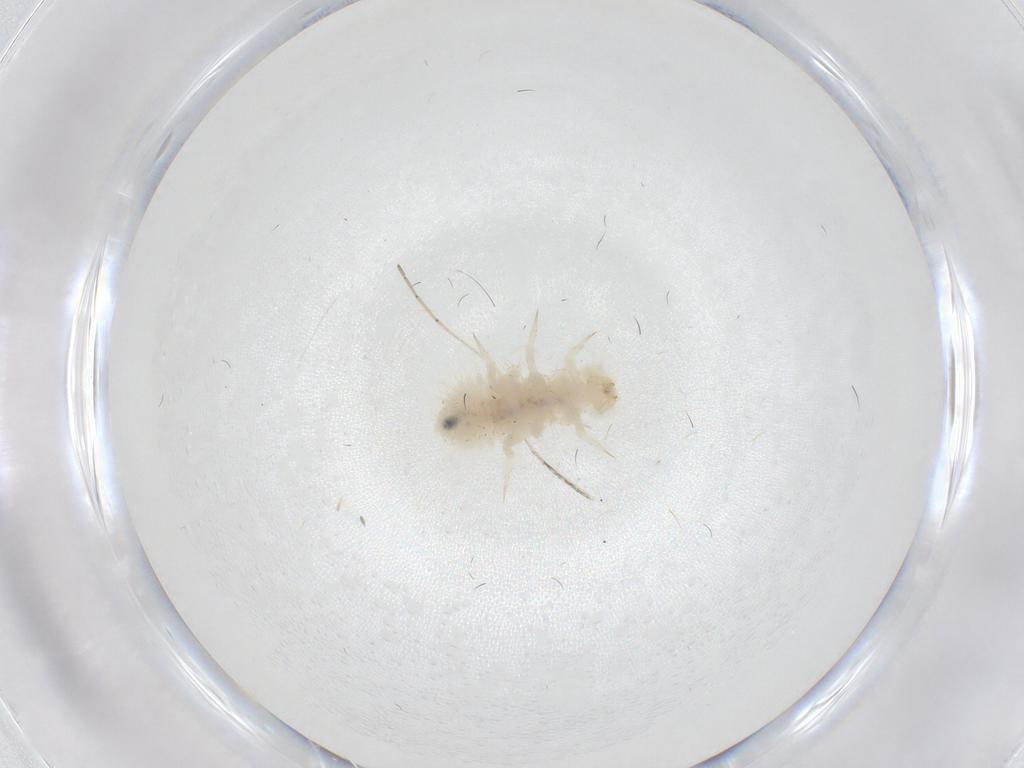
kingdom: Animalia
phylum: Arthropoda
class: Insecta
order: Coleoptera
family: Anamorphidae
